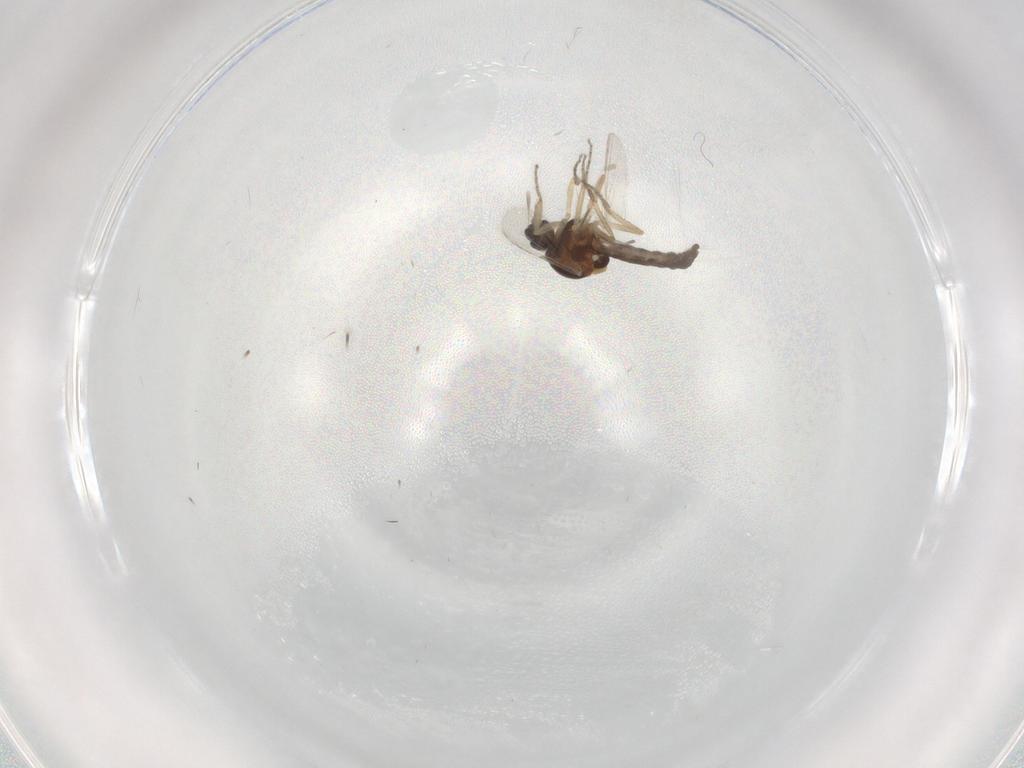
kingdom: Animalia
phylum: Arthropoda
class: Insecta
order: Diptera
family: Ceratopogonidae
